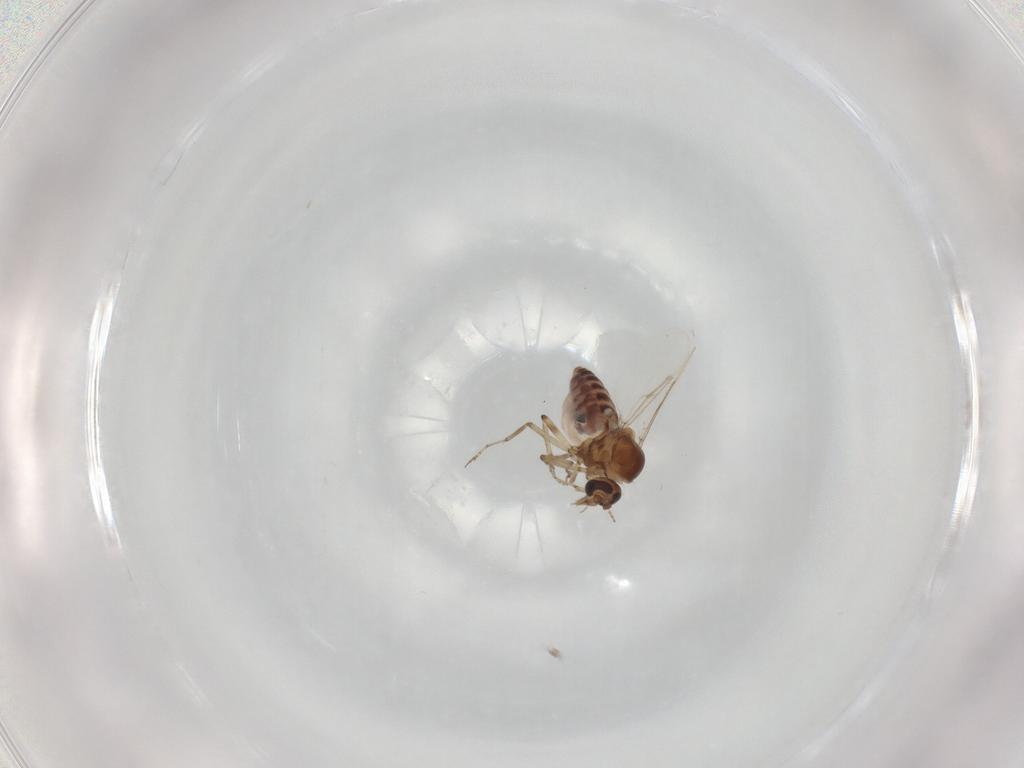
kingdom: Animalia
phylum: Arthropoda
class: Insecta
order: Diptera
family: Ceratopogonidae
